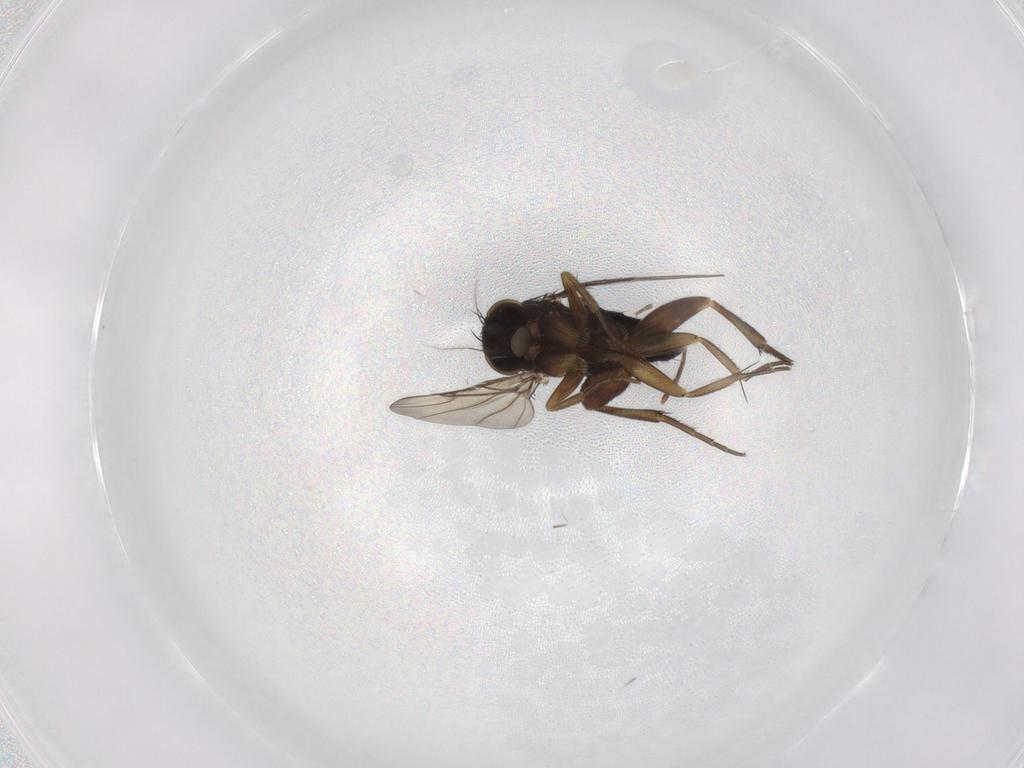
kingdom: Animalia
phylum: Arthropoda
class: Insecta
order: Diptera
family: Phoridae
